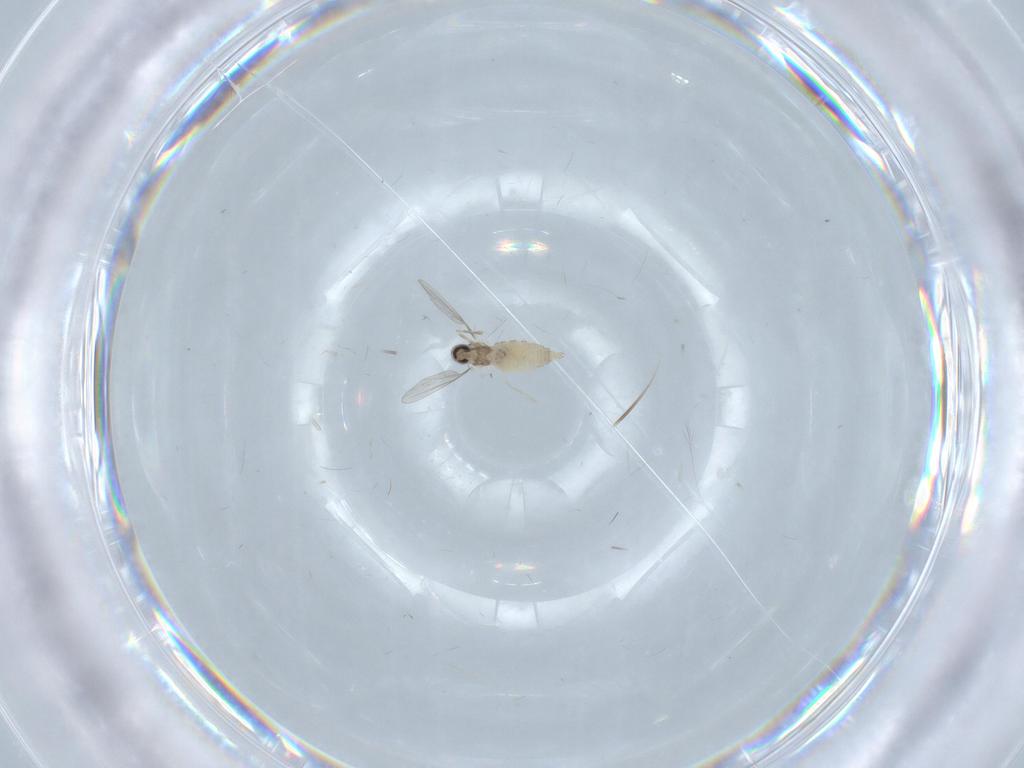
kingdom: Animalia
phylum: Arthropoda
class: Insecta
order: Diptera
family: Cecidomyiidae
